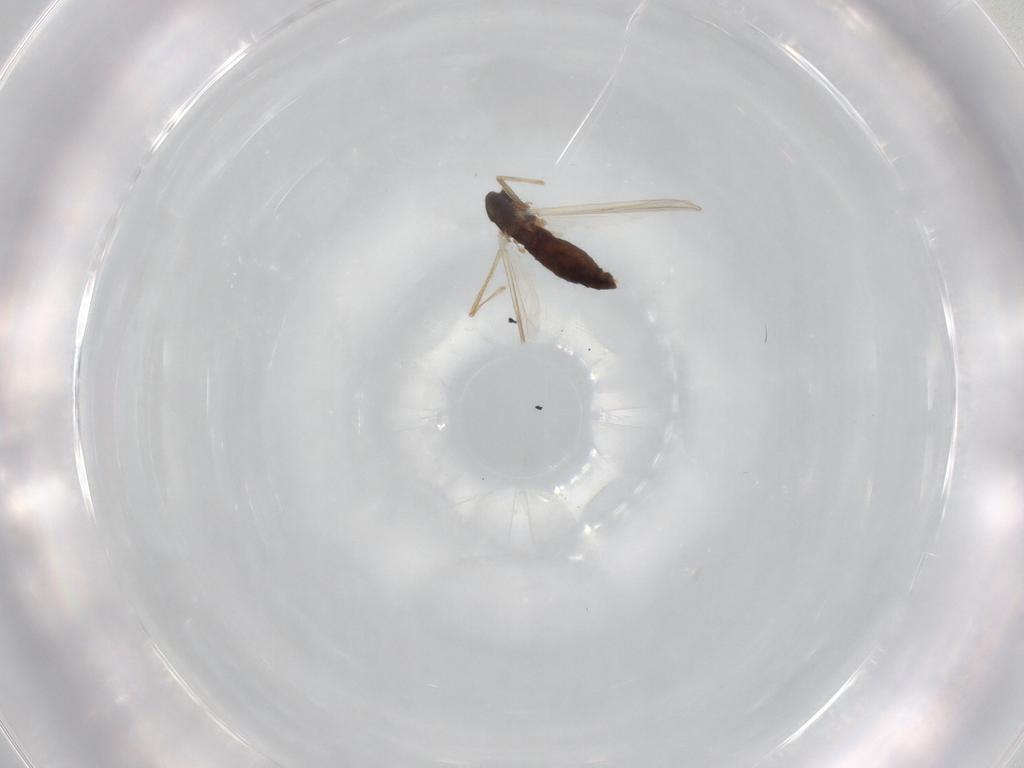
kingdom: Animalia
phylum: Arthropoda
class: Insecta
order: Diptera
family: Chironomidae
